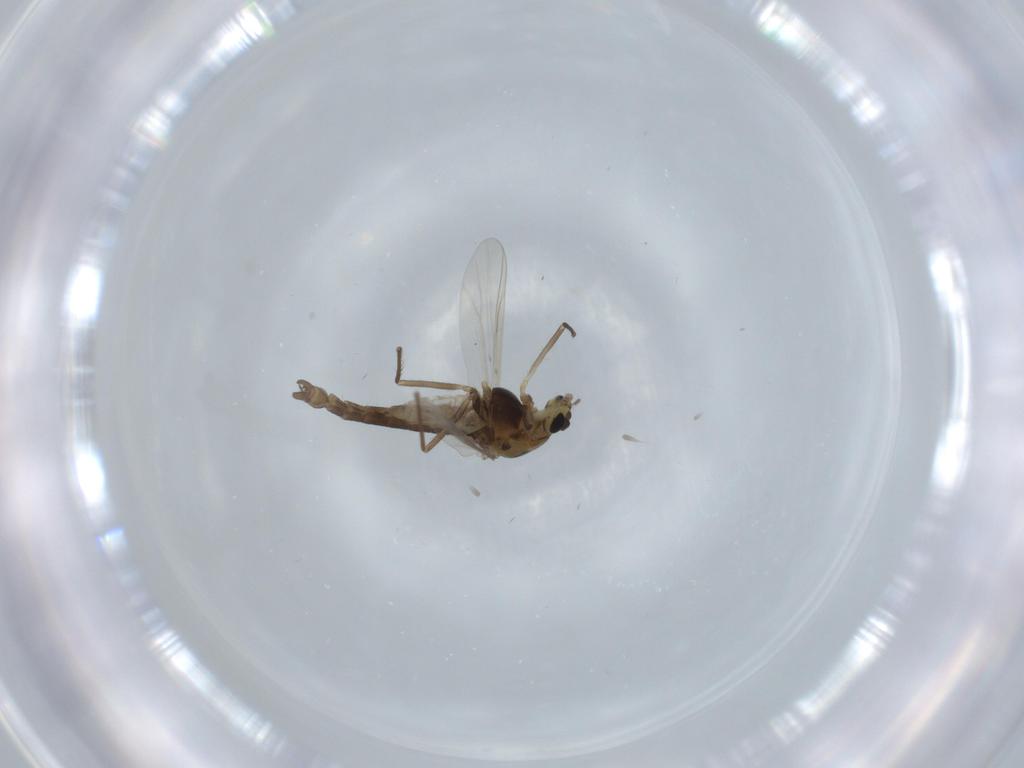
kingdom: Animalia
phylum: Arthropoda
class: Insecta
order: Diptera
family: Chironomidae
